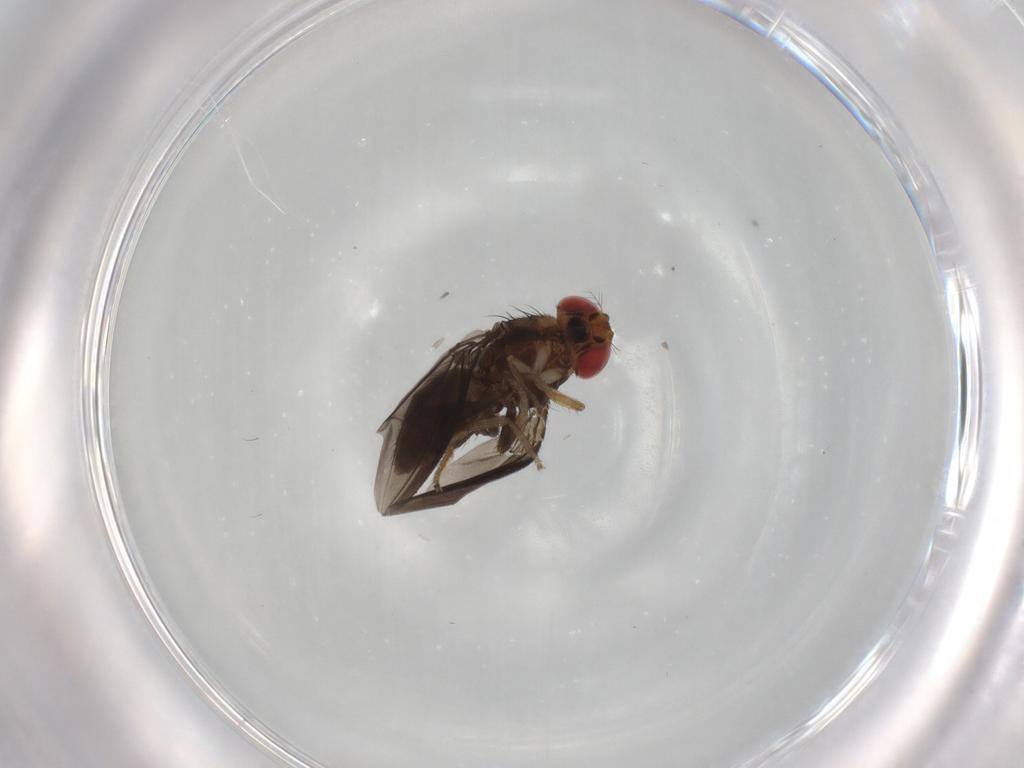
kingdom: Animalia
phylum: Arthropoda
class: Insecta
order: Diptera
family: Drosophilidae
